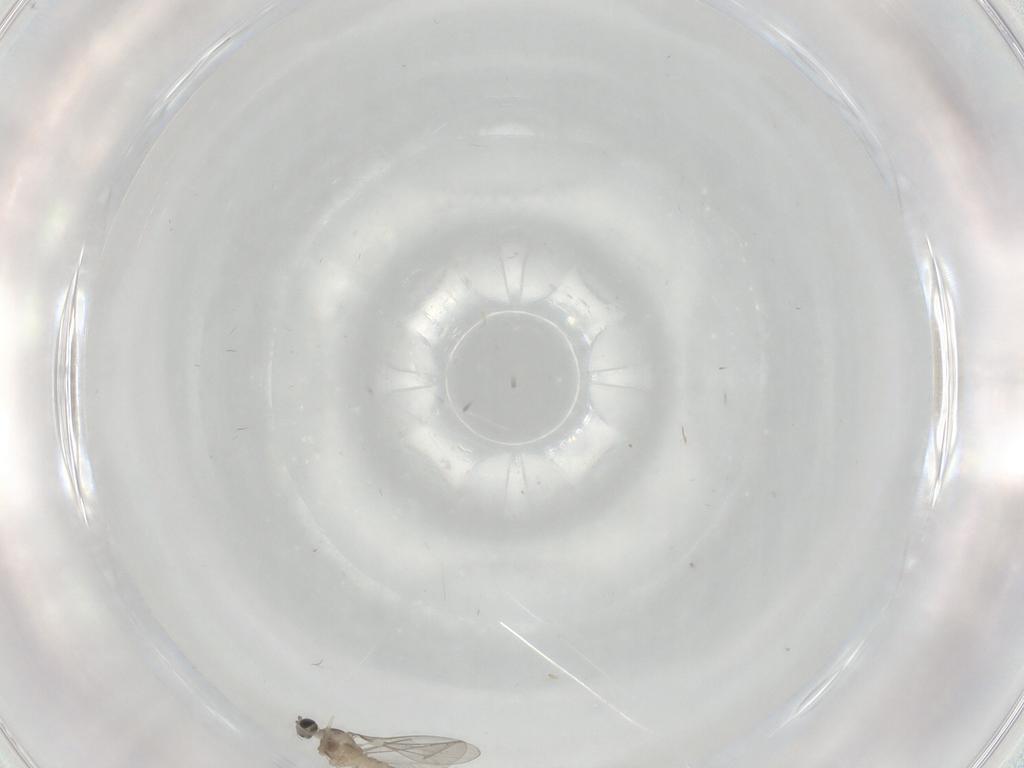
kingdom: Animalia
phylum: Arthropoda
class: Insecta
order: Diptera
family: Cecidomyiidae
